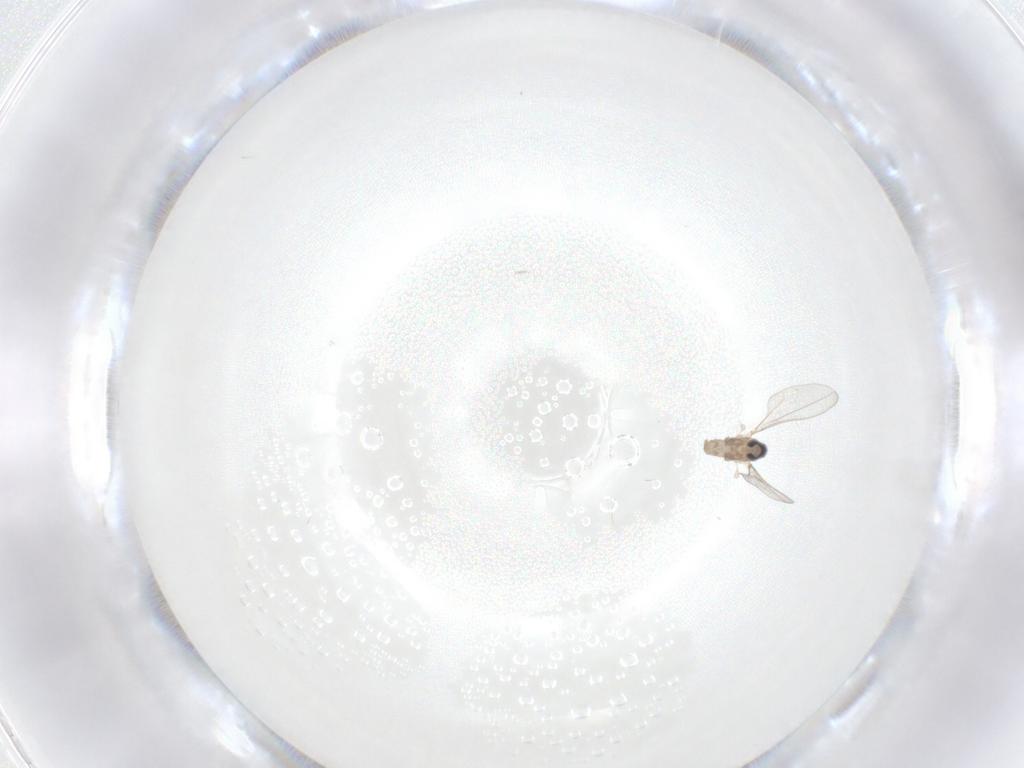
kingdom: Animalia
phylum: Arthropoda
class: Insecta
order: Diptera
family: Cecidomyiidae
